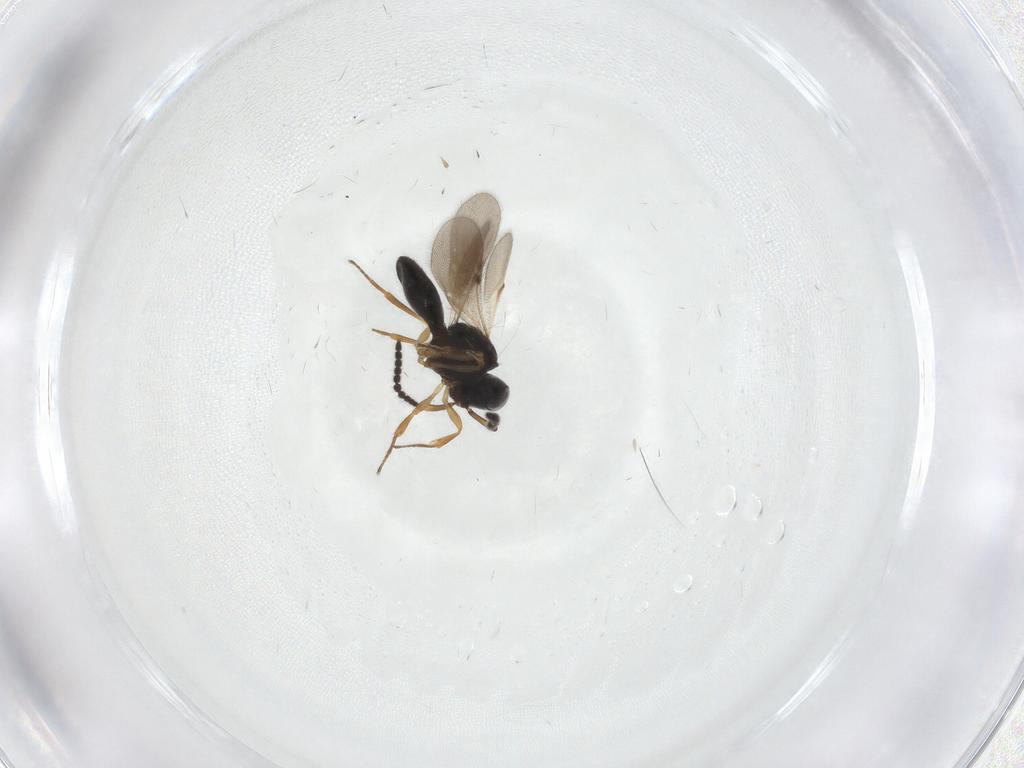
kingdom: Animalia
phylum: Arthropoda
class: Insecta
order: Hymenoptera
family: Scelionidae
